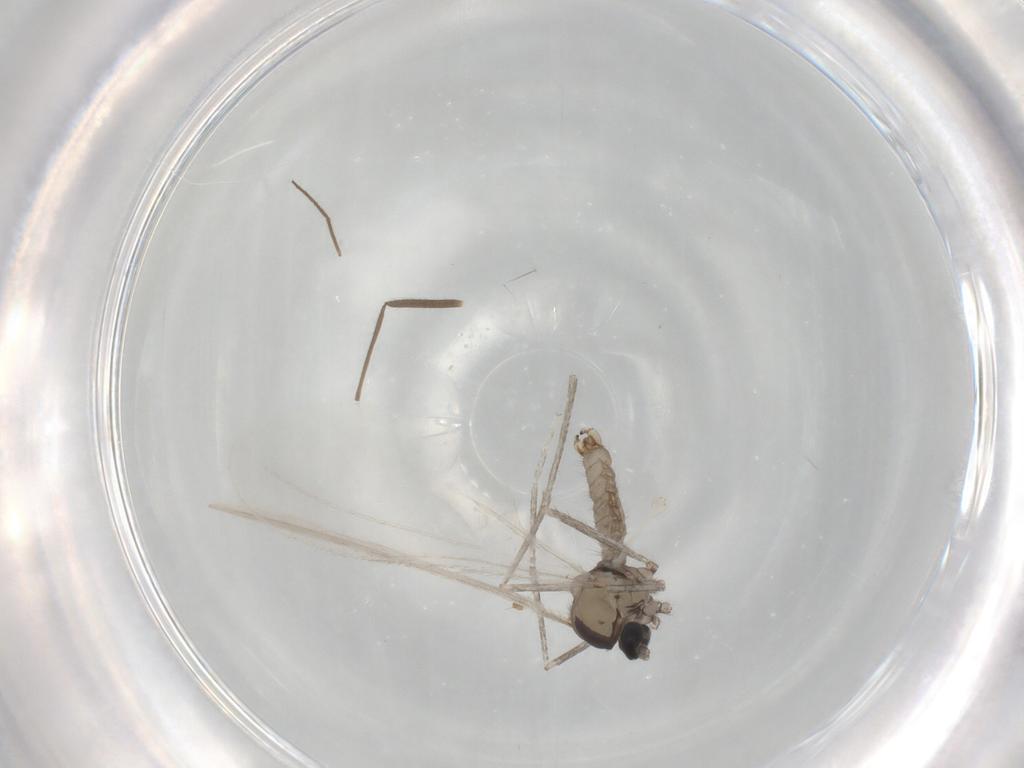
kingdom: Animalia
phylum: Arthropoda
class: Insecta
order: Diptera
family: Cecidomyiidae
